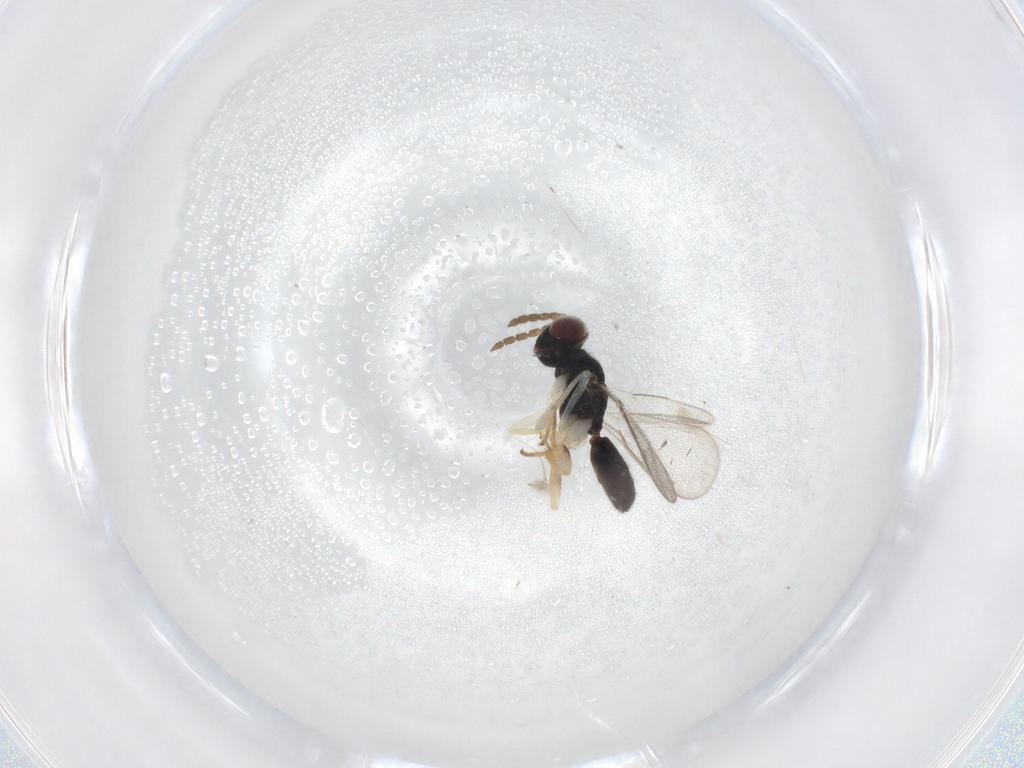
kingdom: Animalia
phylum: Arthropoda
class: Insecta
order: Hymenoptera
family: Eulophidae
